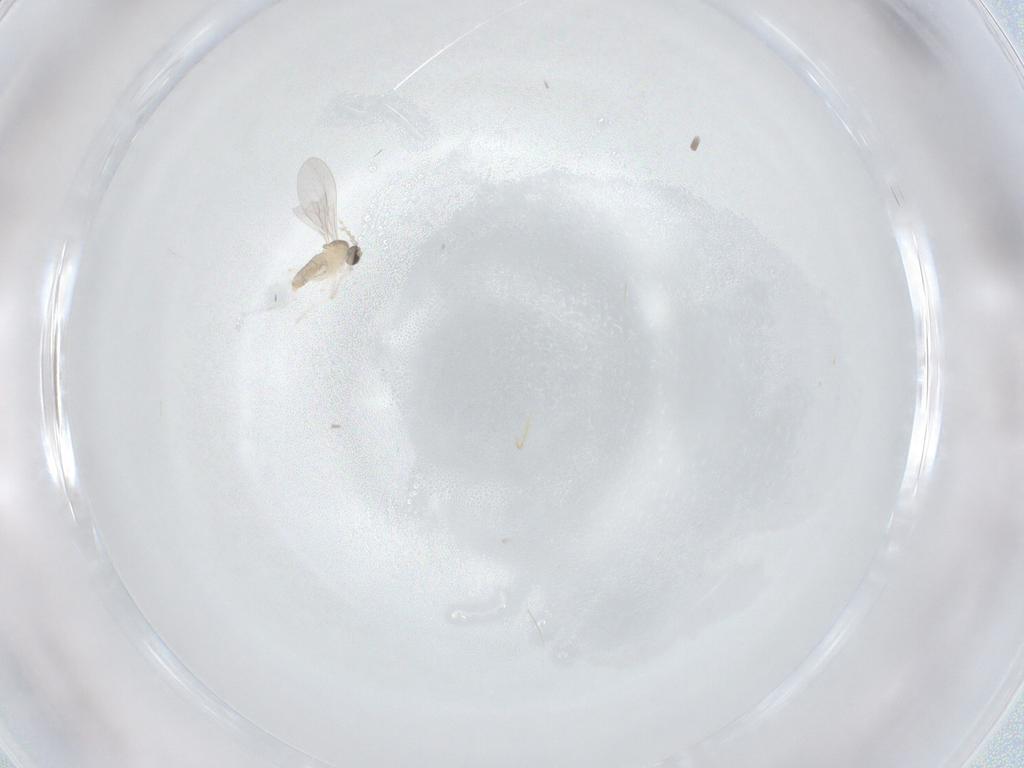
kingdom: Animalia
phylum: Arthropoda
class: Insecta
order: Diptera
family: Cecidomyiidae
